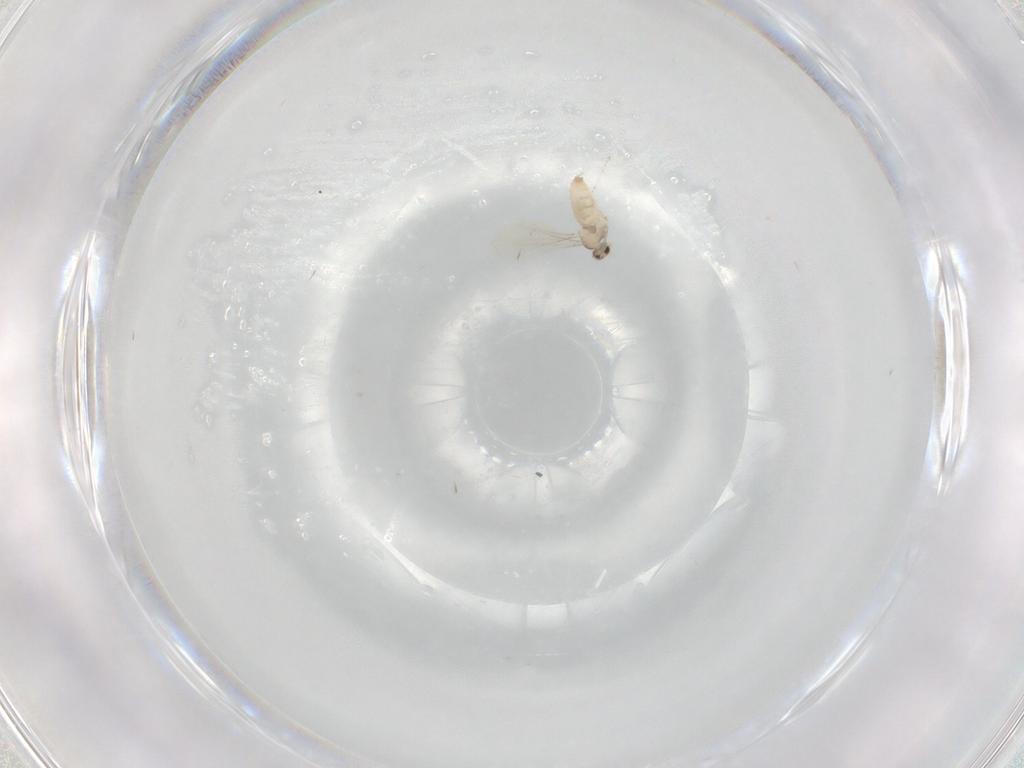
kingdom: Animalia
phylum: Arthropoda
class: Insecta
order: Diptera
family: Cecidomyiidae
